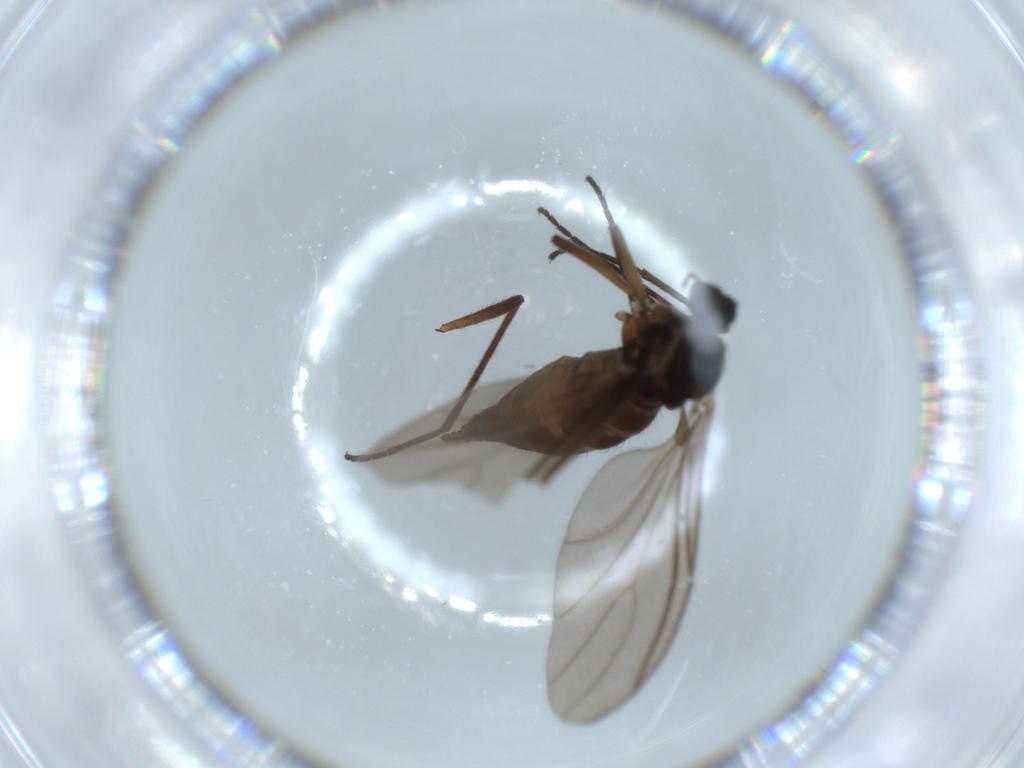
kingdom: Animalia
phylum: Arthropoda
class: Insecta
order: Diptera
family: Sciaridae
